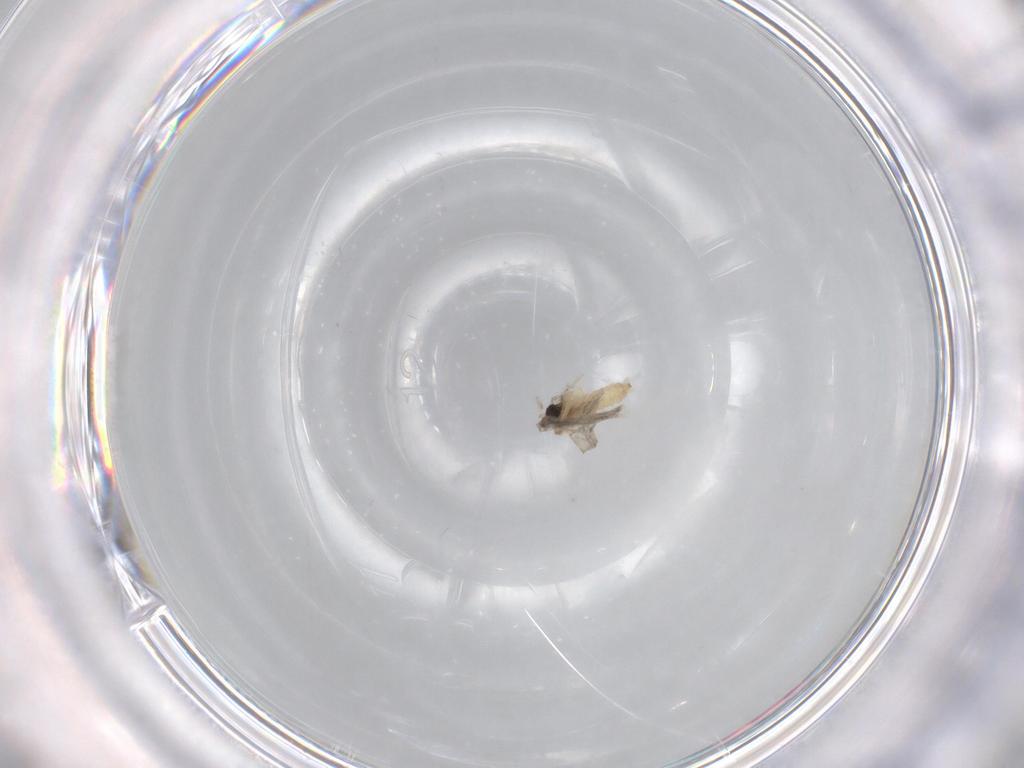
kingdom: Animalia
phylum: Arthropoda
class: Insecta
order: Diptera
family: Cecidomyiidae
